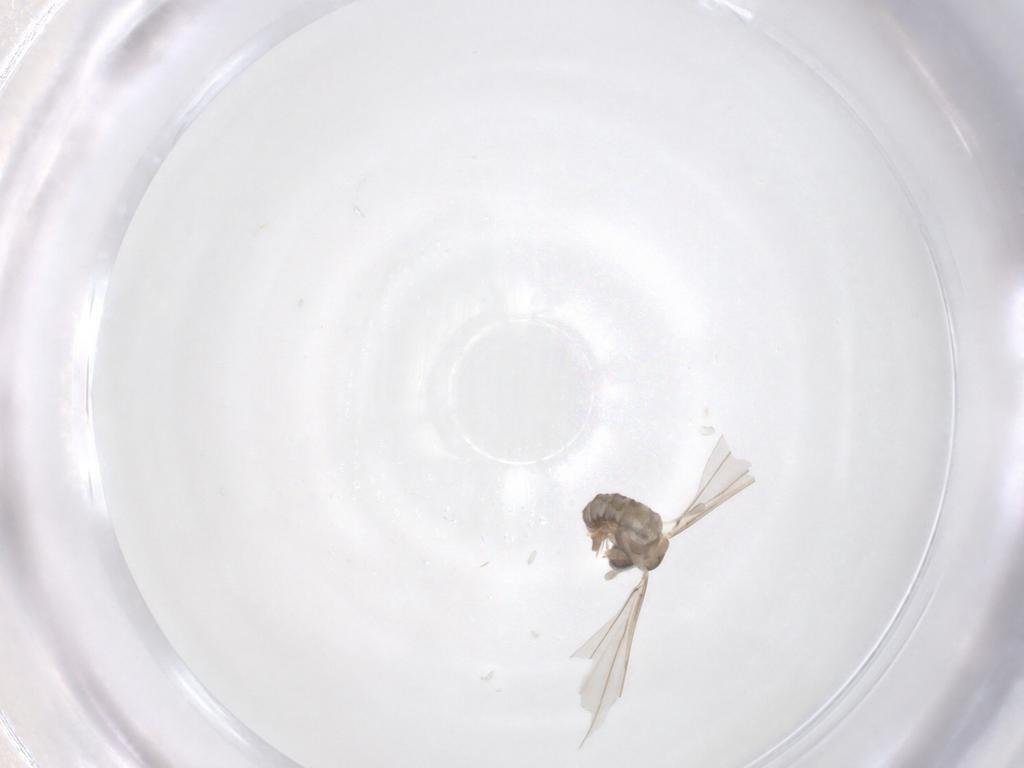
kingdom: Animalia
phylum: Arthropoda
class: Insecta
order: Diptera
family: Cecidomyiidae
